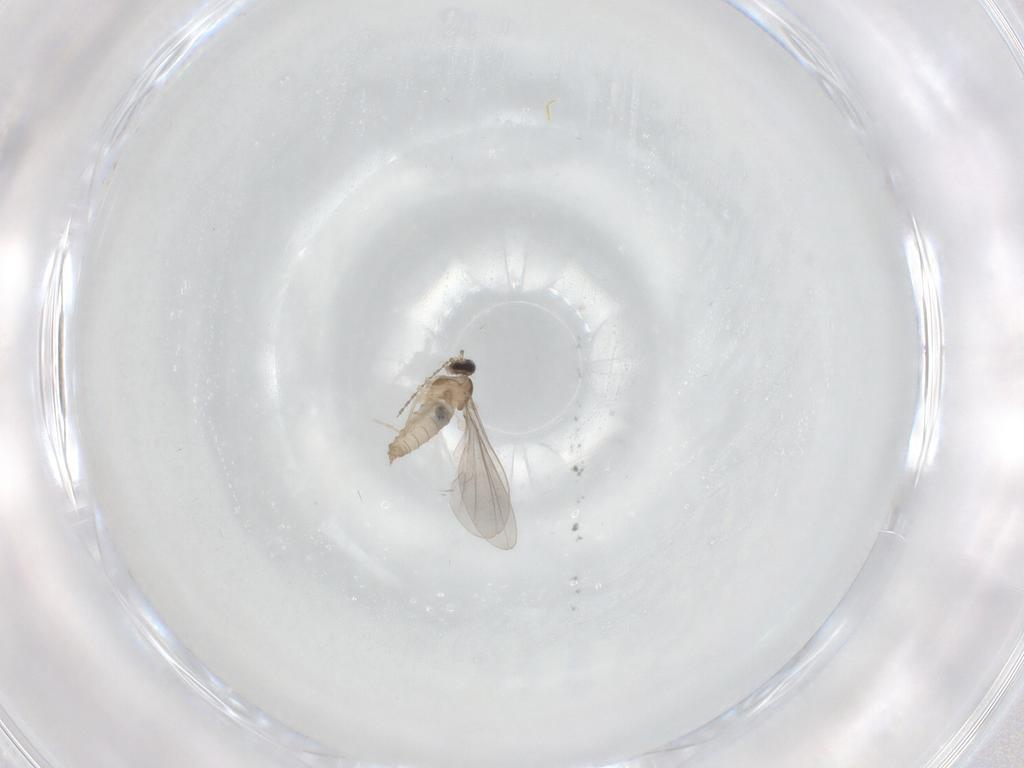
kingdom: Animalia
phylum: Arthropoda
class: Insecta
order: Diptera
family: Cecidomyiidae
